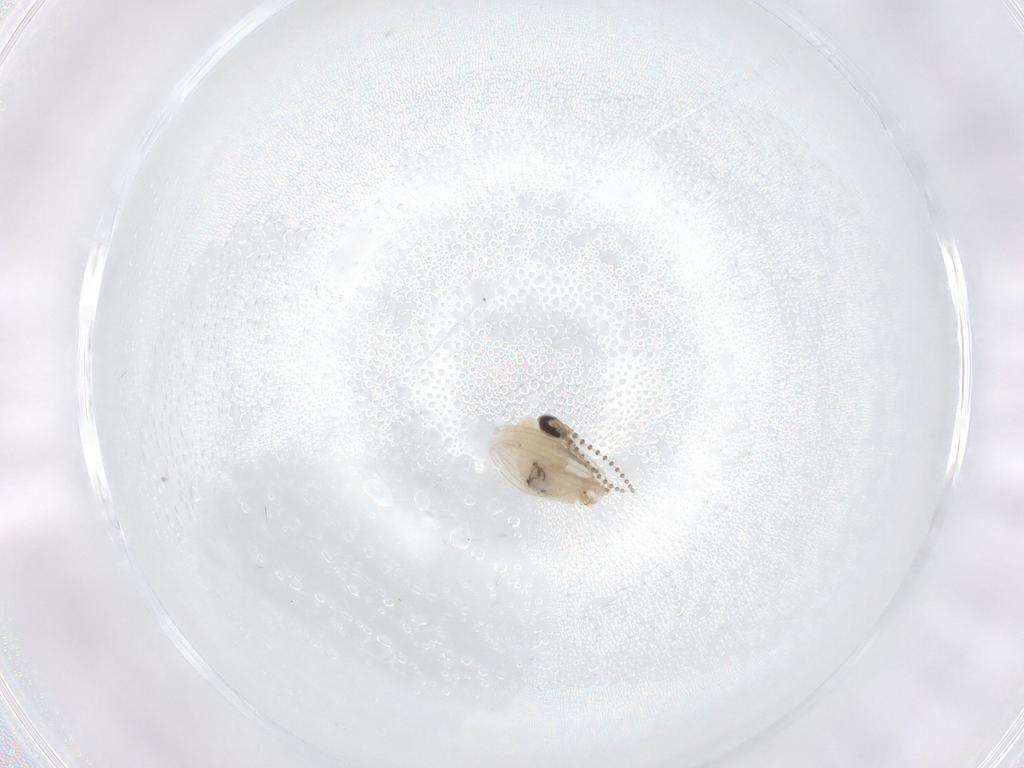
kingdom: Animalia
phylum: Arthropoda
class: Insecta
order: Diptera
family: Psychodidae
